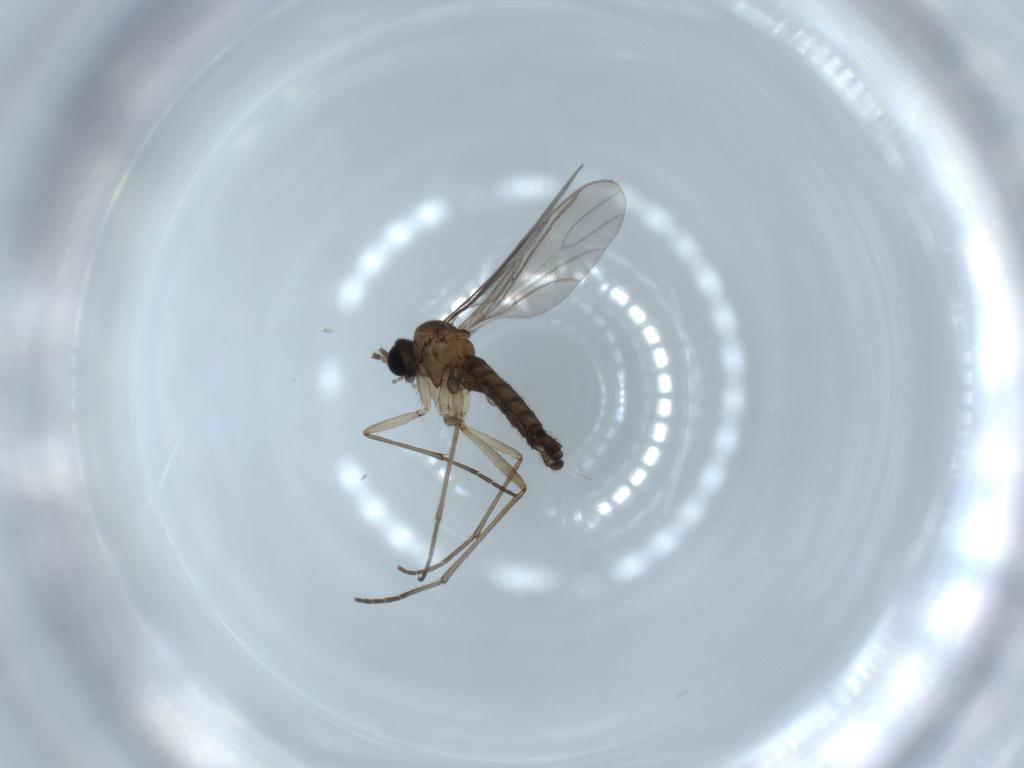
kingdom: Animalia
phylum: Arthropoda
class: Insecta
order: Diptera
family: Sciaridae
